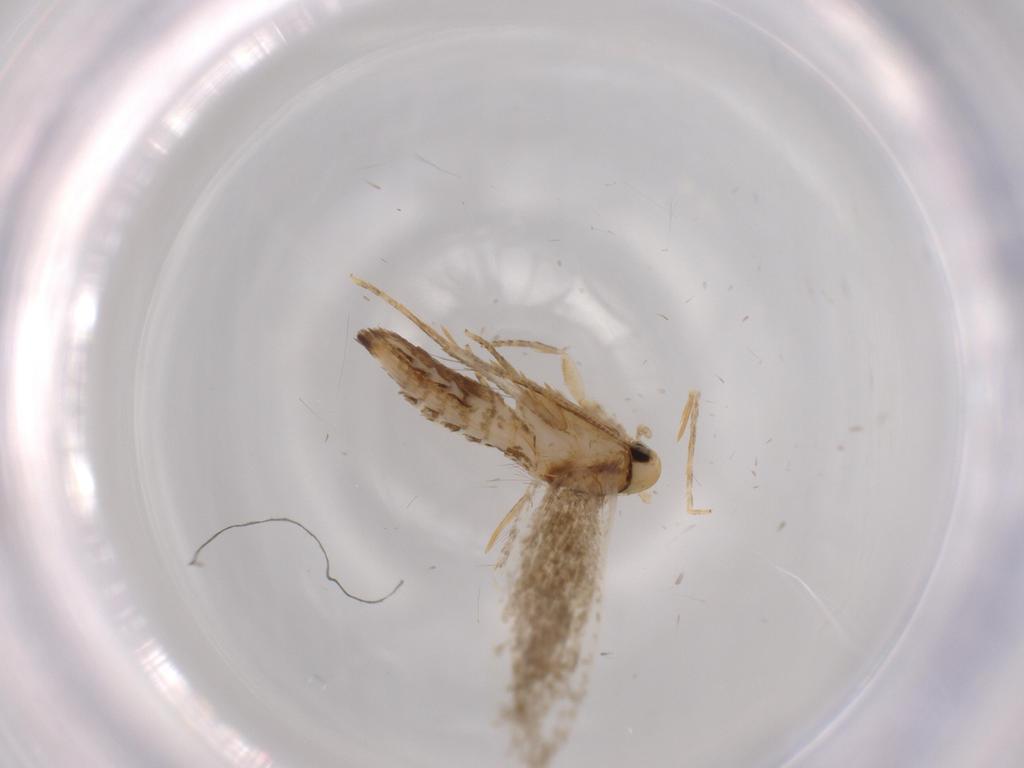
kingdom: Animalia
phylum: Arthropoda
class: Insecta
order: Lepidoptera
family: Tineidae
